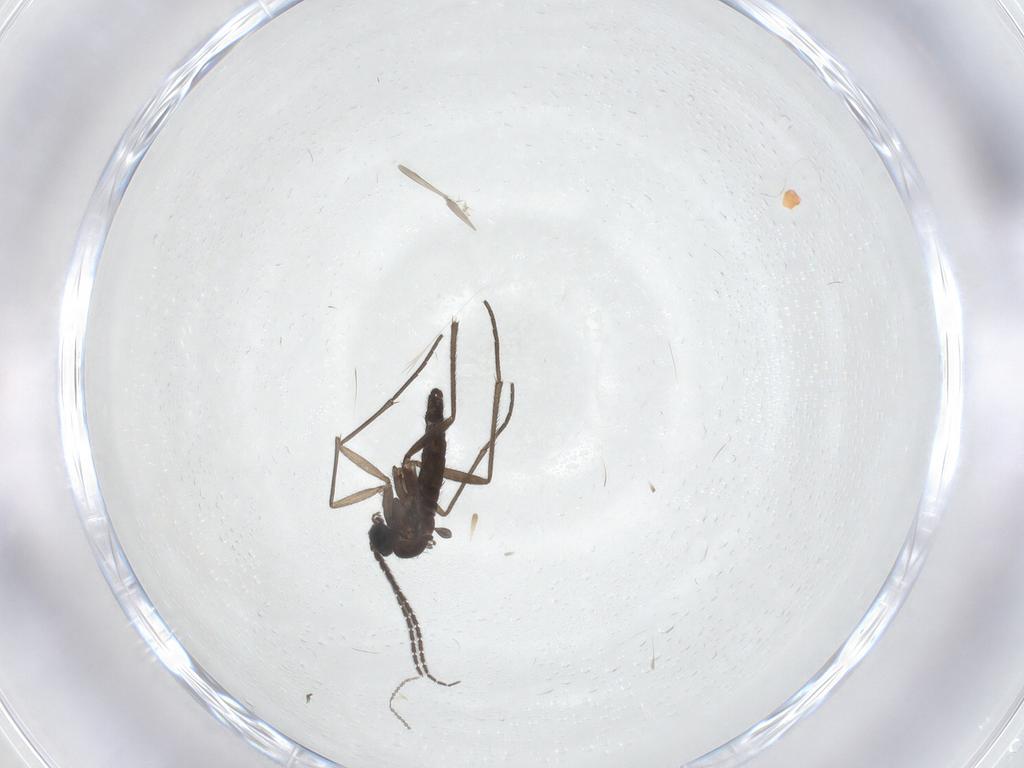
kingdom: Animalia
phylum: Arthropoda
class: Insecta
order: Diptera
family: Sciaridae
